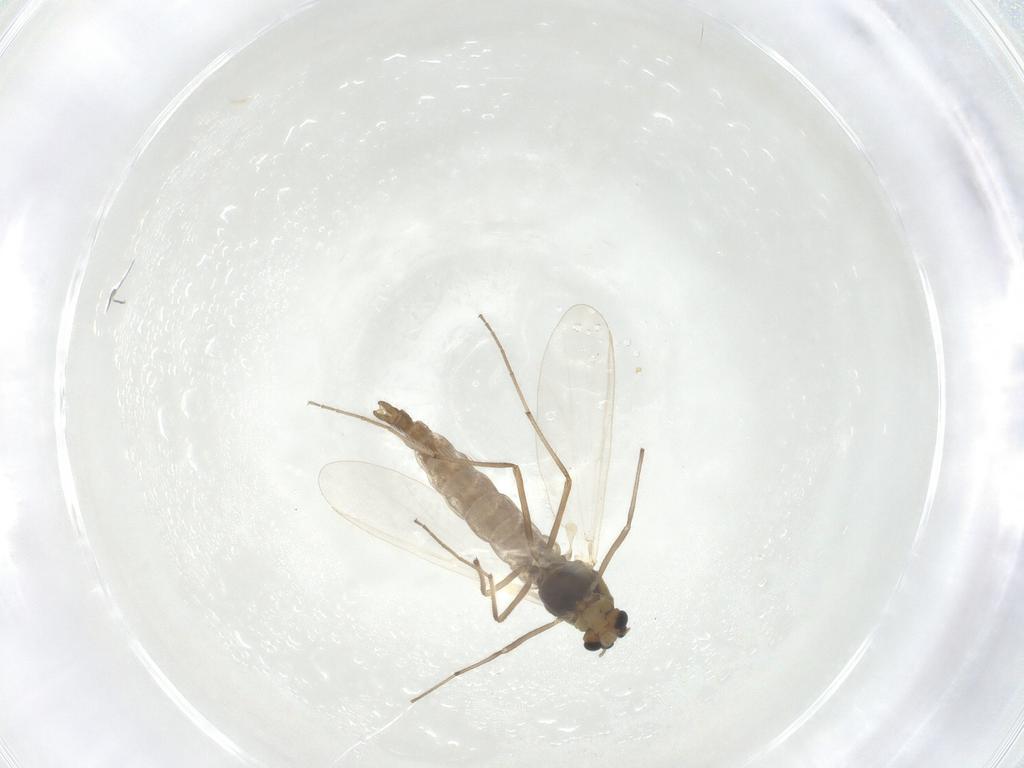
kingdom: Animalia
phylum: Arthropoda
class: Insecta
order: Diptera
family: Chironomidae
